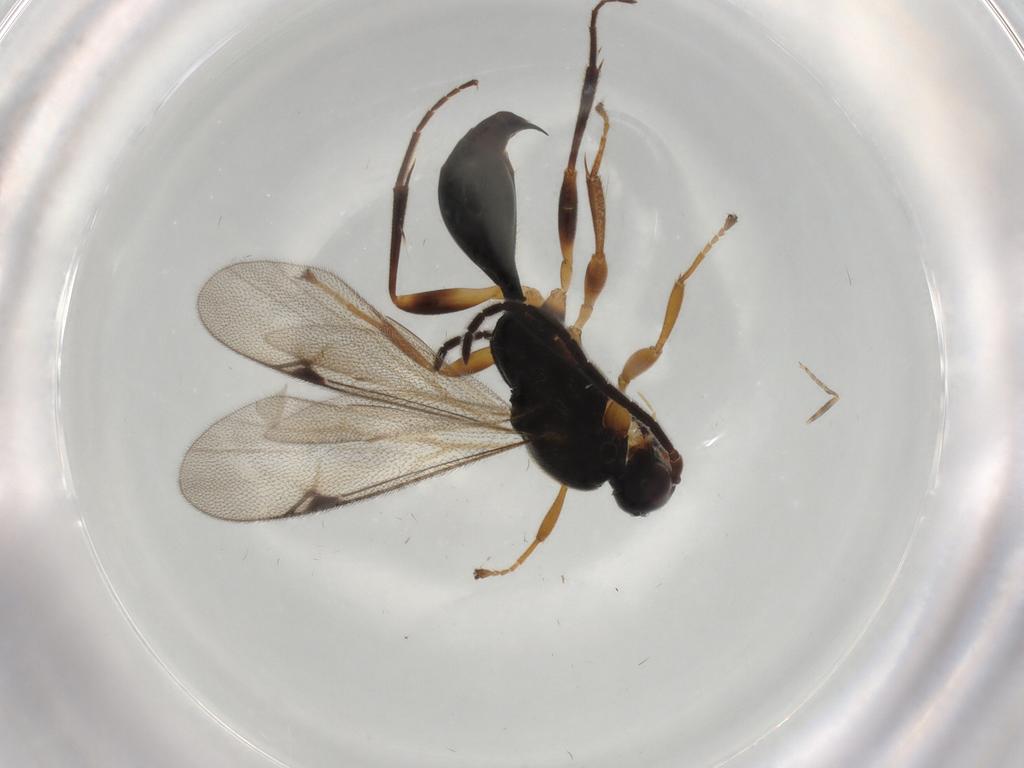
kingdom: Animalia
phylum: Arthropoda
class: Insecta
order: Hymenoptera
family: Proctotrupidae
